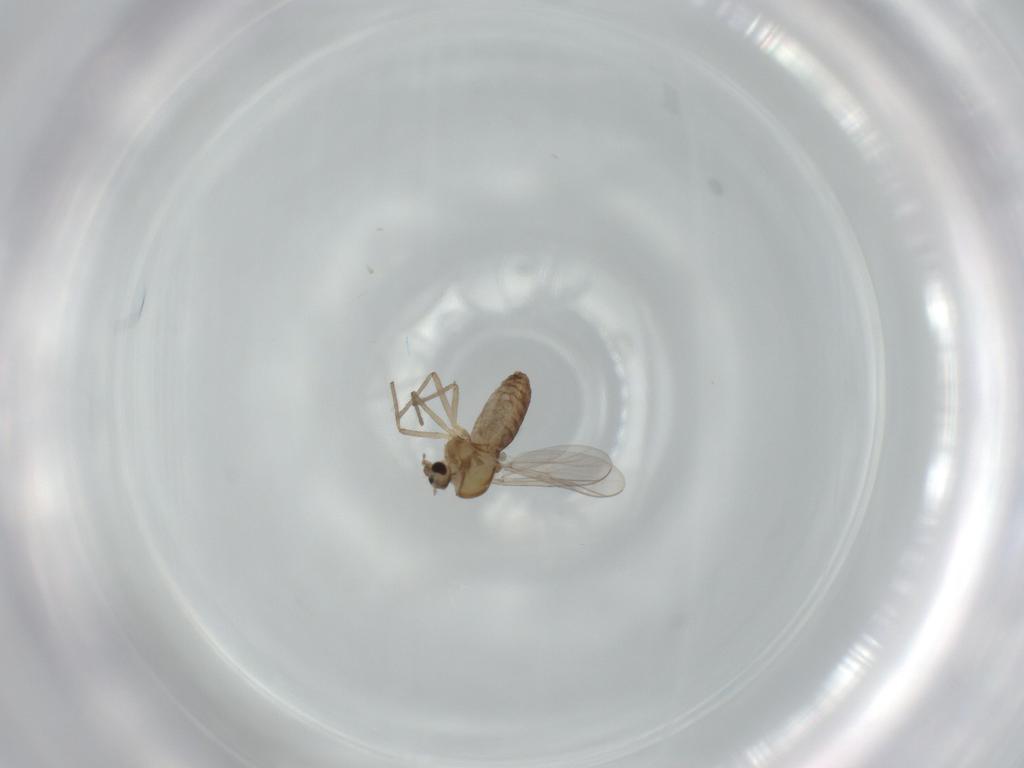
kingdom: Animalia
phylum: Arthropoda
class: Insecta
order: Diptera
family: Chironomidae
